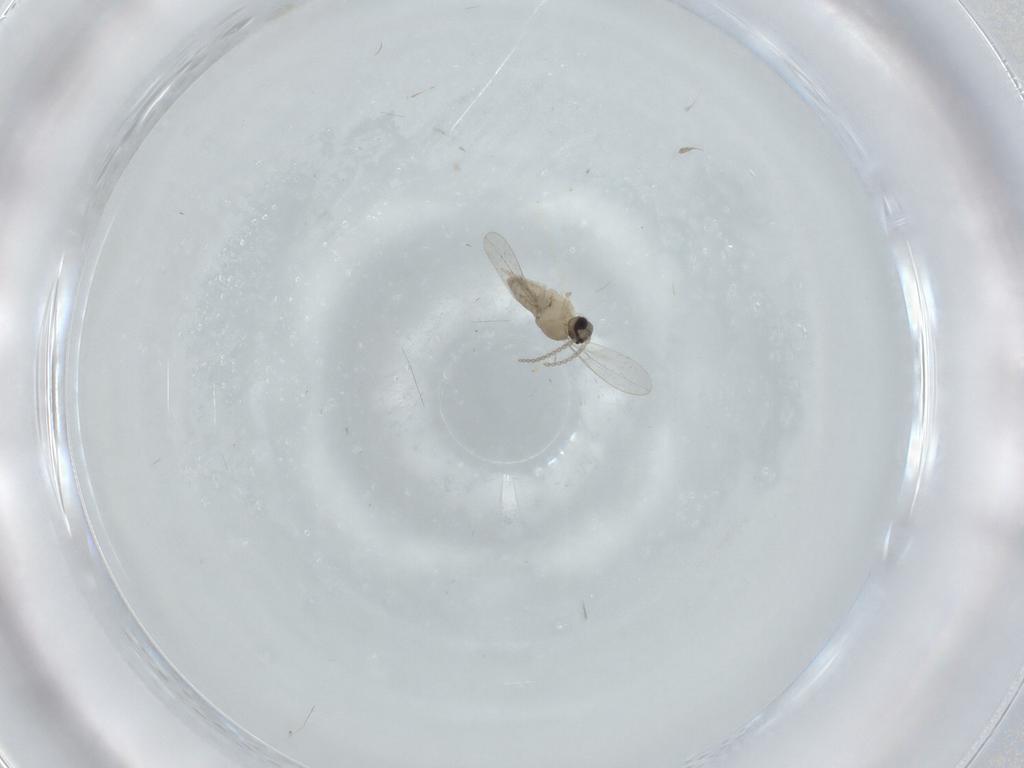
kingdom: Animalia
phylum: Arthropoda
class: Insecta
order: Diptera
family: Cecidomyiidae
